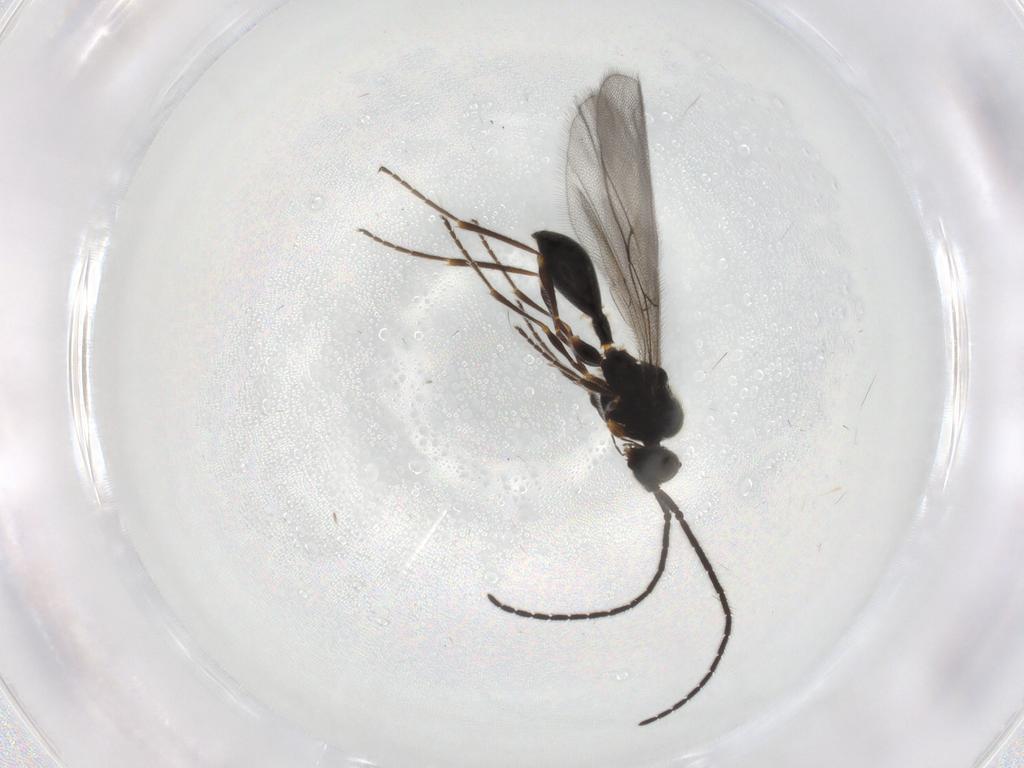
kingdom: Animalia
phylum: Arthropoda
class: Insecta
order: Hymenoptera
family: Diapriidae
